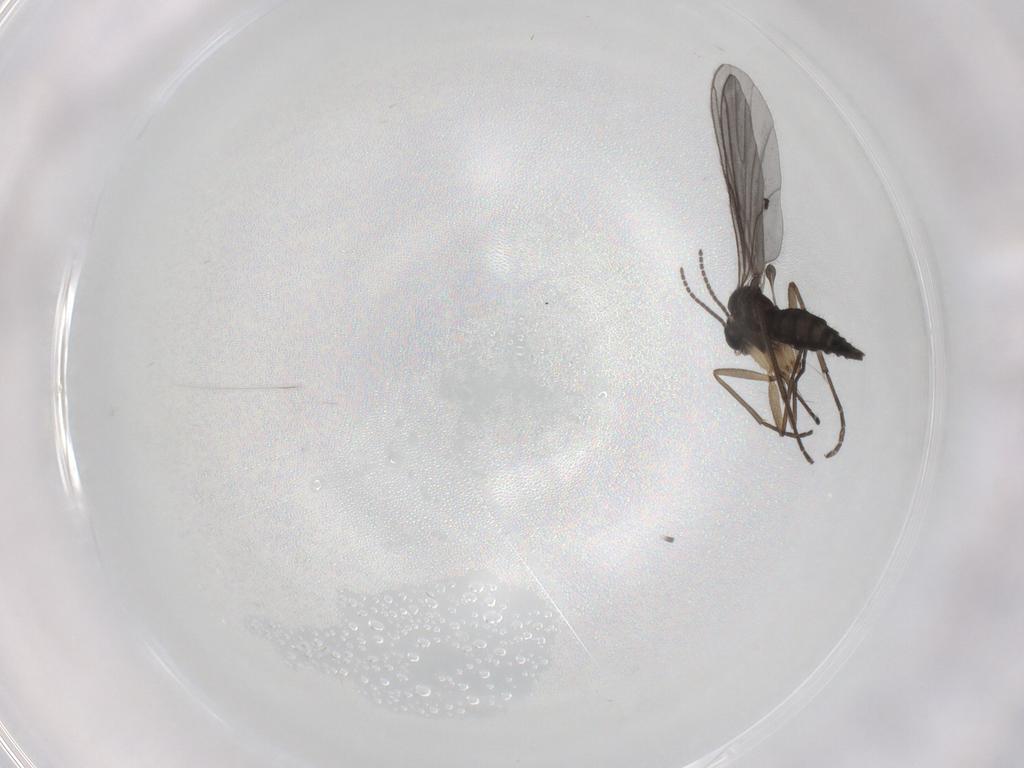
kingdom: Animalia
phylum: Arthropoda
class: Insecta
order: Diptera
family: Sciaridae
